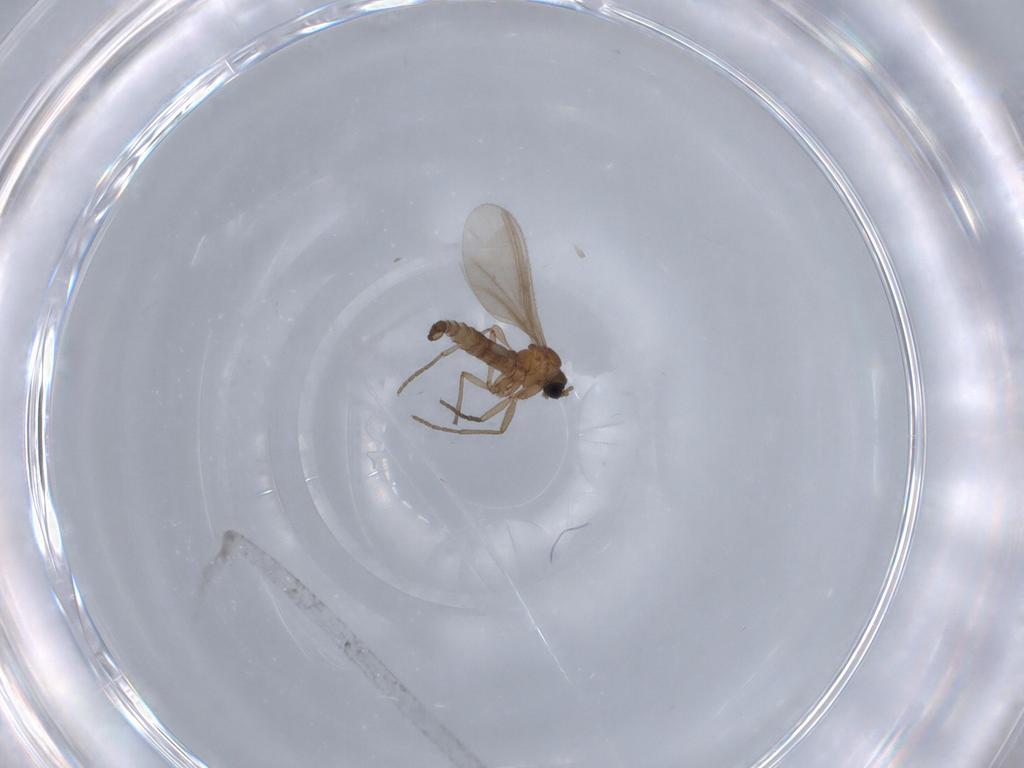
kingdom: Animalia
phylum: Arthropoda
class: Insecta
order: Diptera
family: Sciaridae
